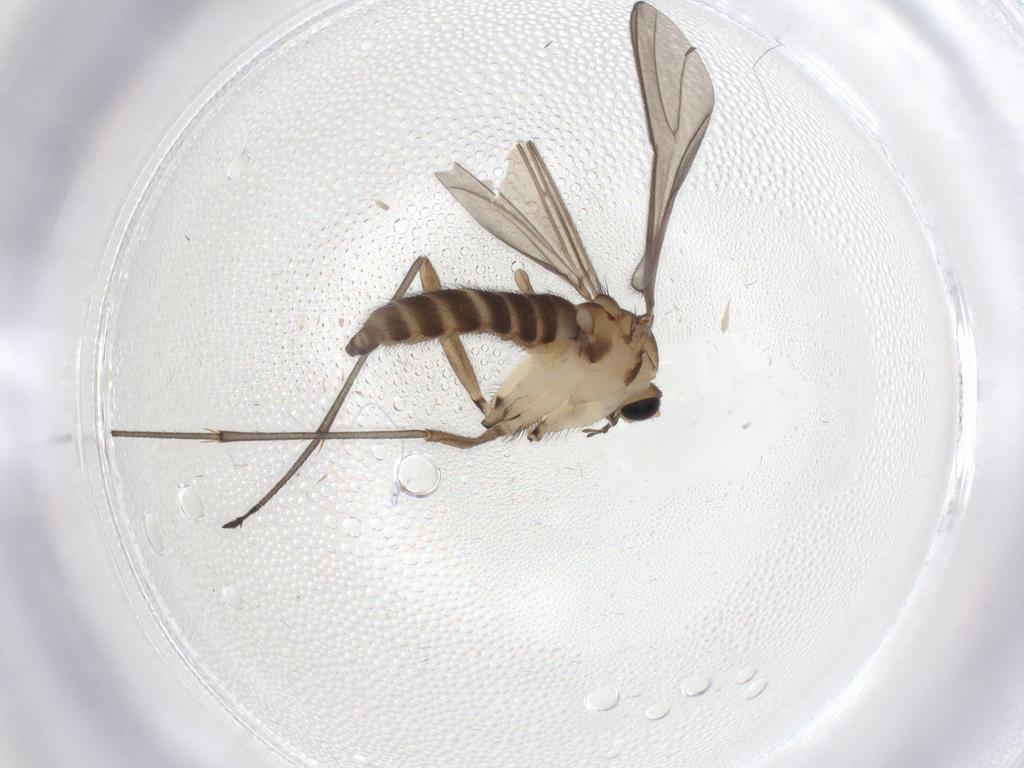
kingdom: Animalia
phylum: Arthropoda
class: Insecta
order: Diptera
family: Sciaridae
